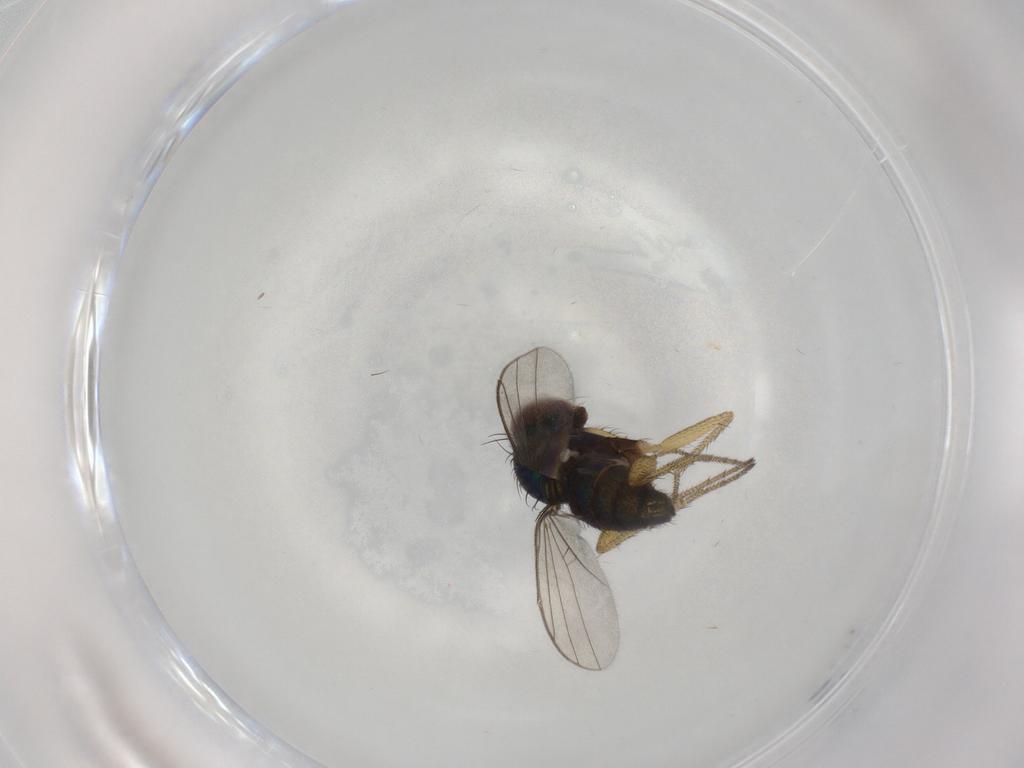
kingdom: Animalia
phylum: Arthropoda
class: Insecta
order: Diptera
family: Cecidomyiidae
